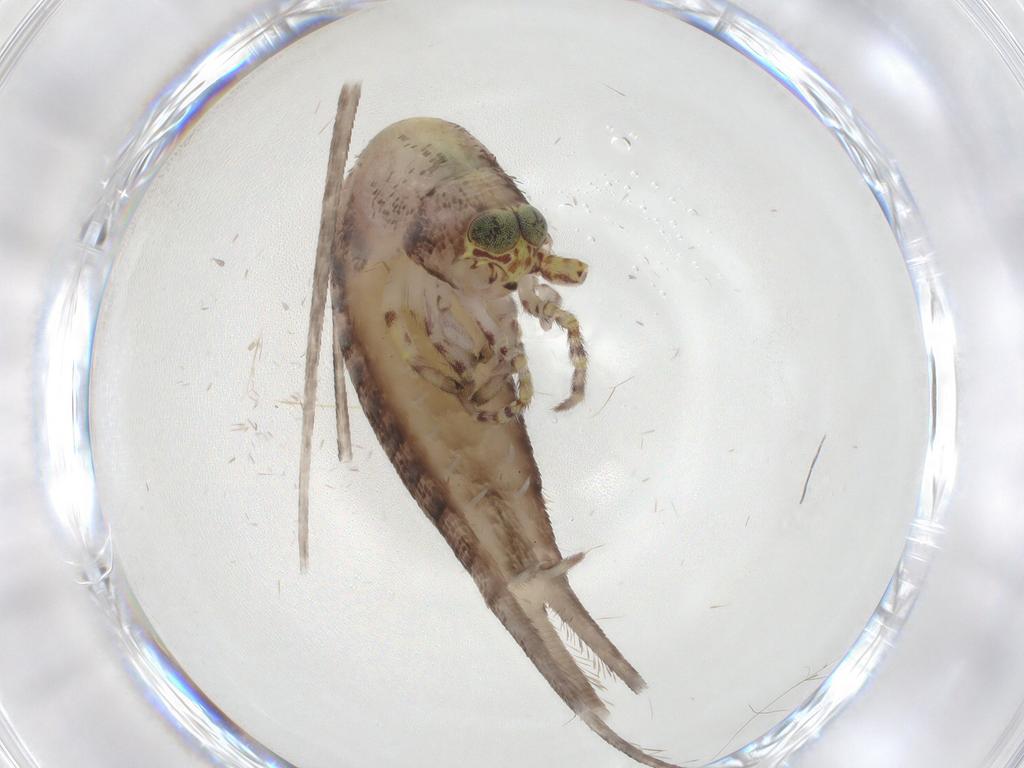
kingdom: Animalia
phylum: Arthropoda
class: Insecta
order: Archaeognatha
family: Machilidae
